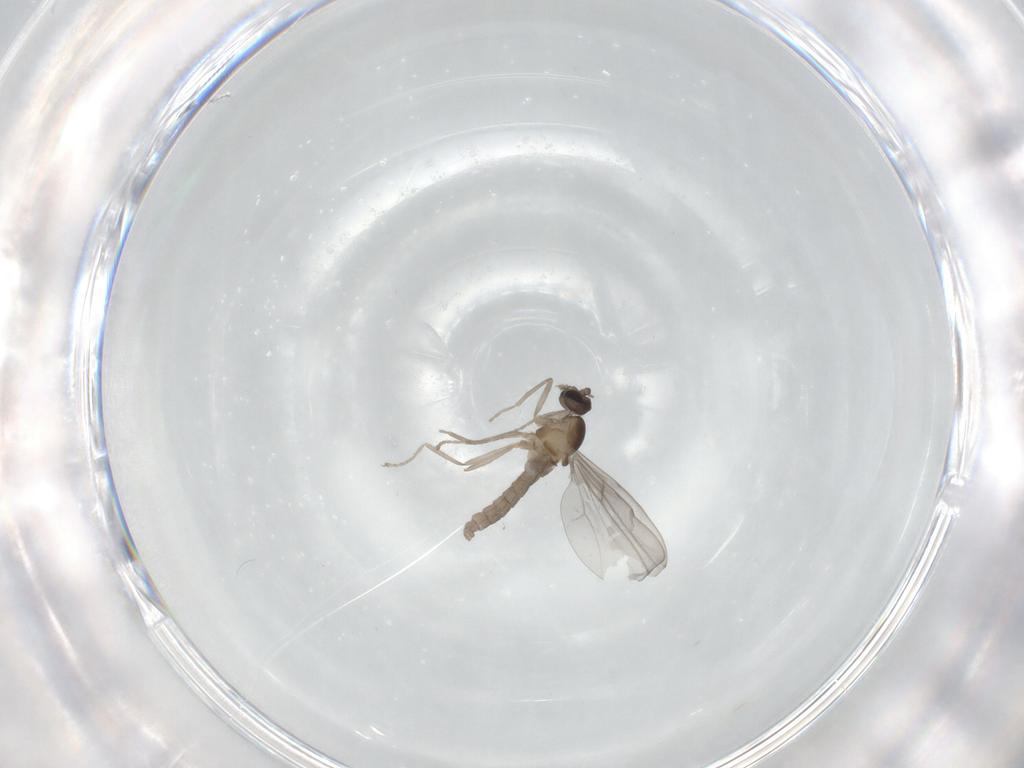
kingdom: Animalia
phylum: Arthropoda
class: Insecta
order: Diptera
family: Cecidomyiidae
